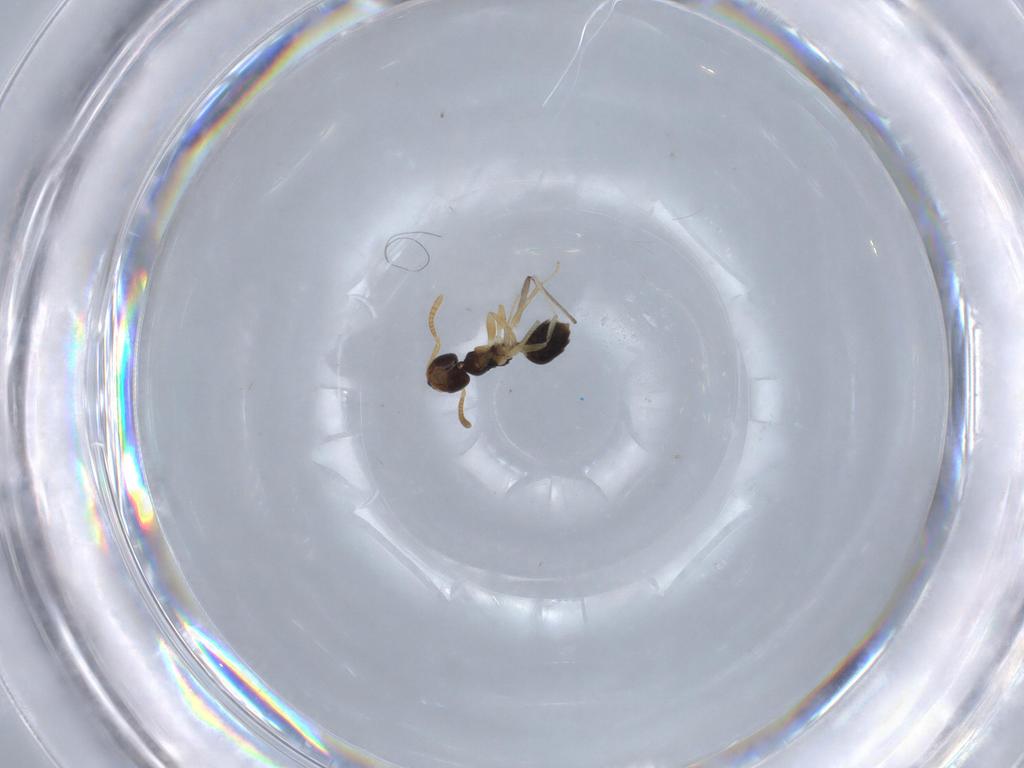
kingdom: Animalia
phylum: Arthropoda
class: Insecta
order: Hymenoptera
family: Formicidae
